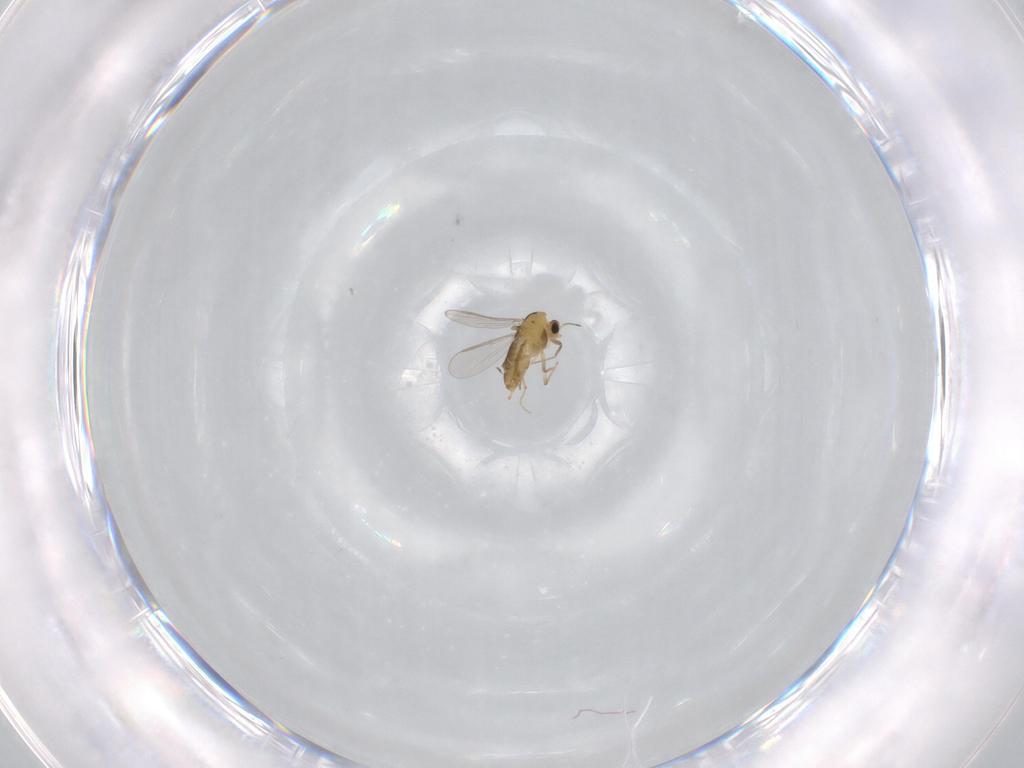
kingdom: Animalia
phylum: Arthropoda
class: Insecta
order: Diptera
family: Chironomidae
